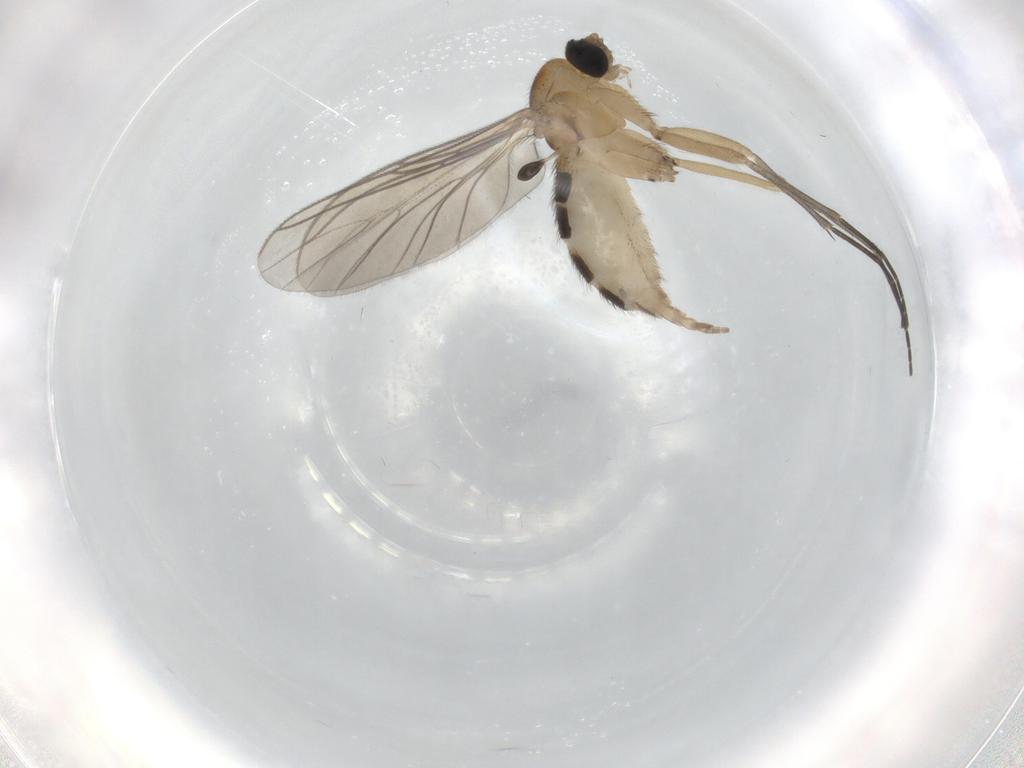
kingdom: Animalia
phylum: Arthropoda
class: Insecta
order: Diptera
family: Sciaridae
